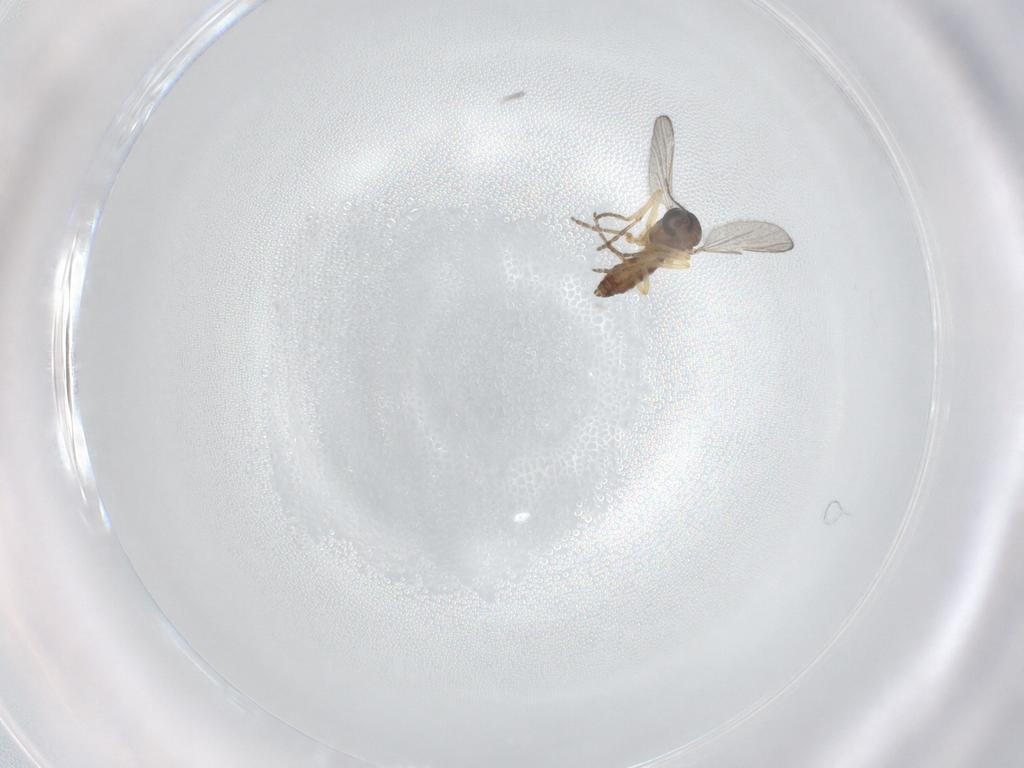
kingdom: Animalia
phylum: Arthropoda
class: Insecta
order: Diptera
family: Ceratopogonidae
